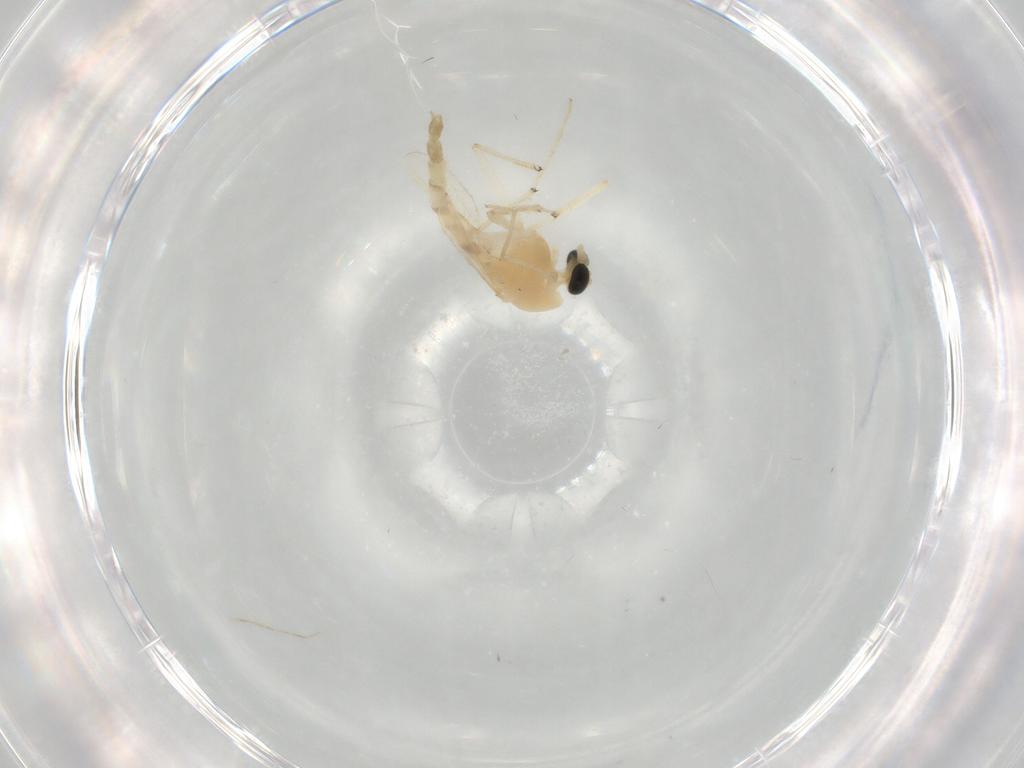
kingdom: Animalia
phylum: Arthropoda
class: Insecta
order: Diptera
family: Chironomidae
